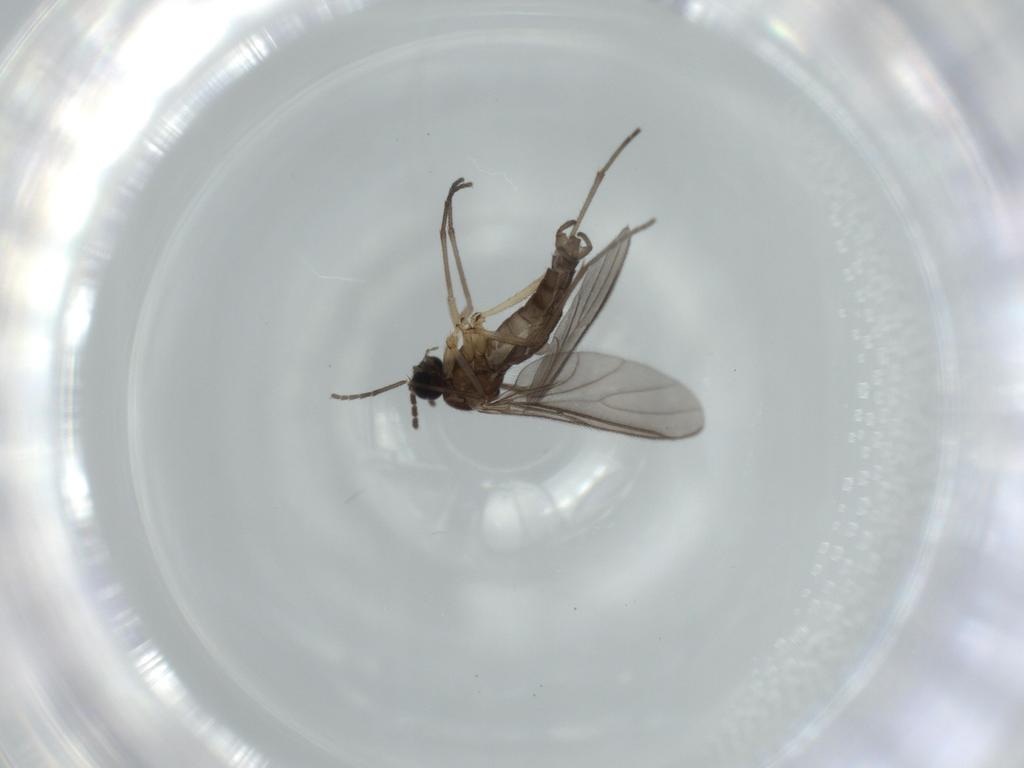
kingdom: Animalia
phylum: Arthropoda
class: Insecta
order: Diptera
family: Sciaridae
